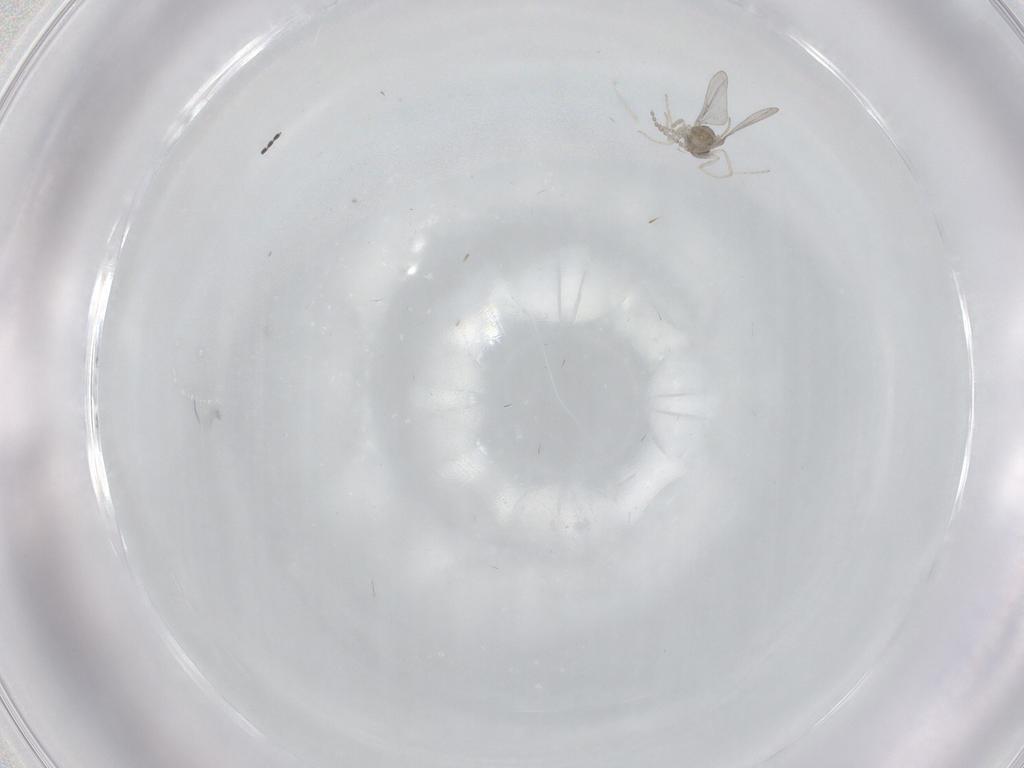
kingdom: Animalia
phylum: Arthropoda
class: Insecta
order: Diptera
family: Cecidomyiidae
